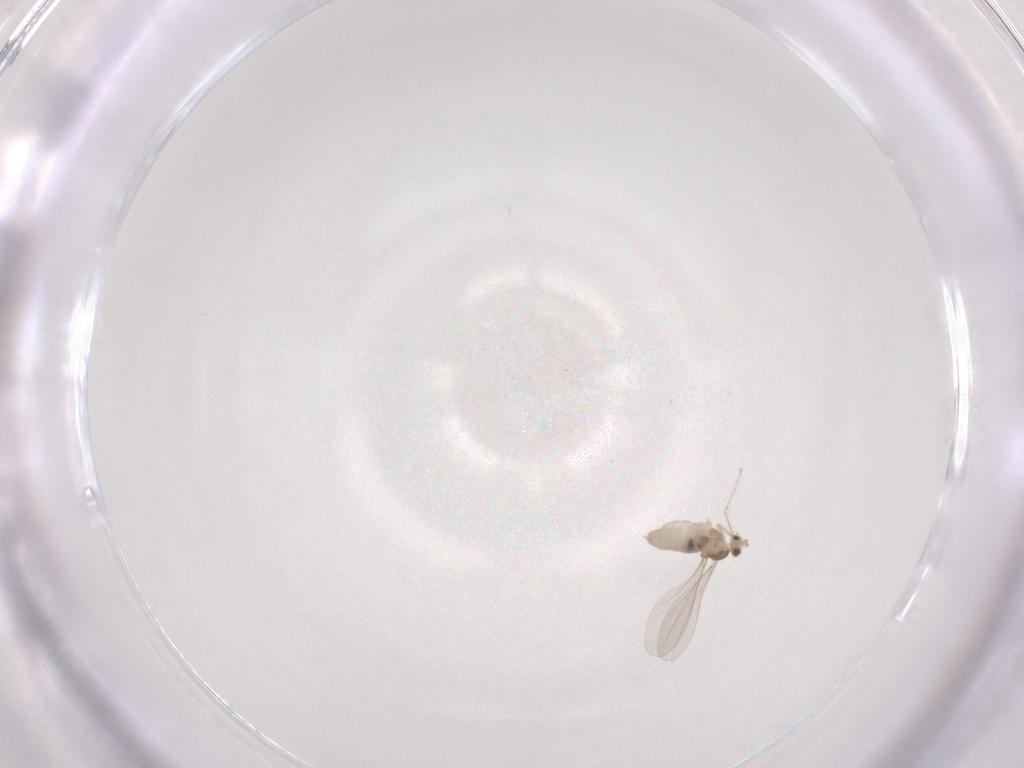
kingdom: Animalia
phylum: Arthropoda
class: Insecta
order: Diptera
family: Cecidomyiidae
